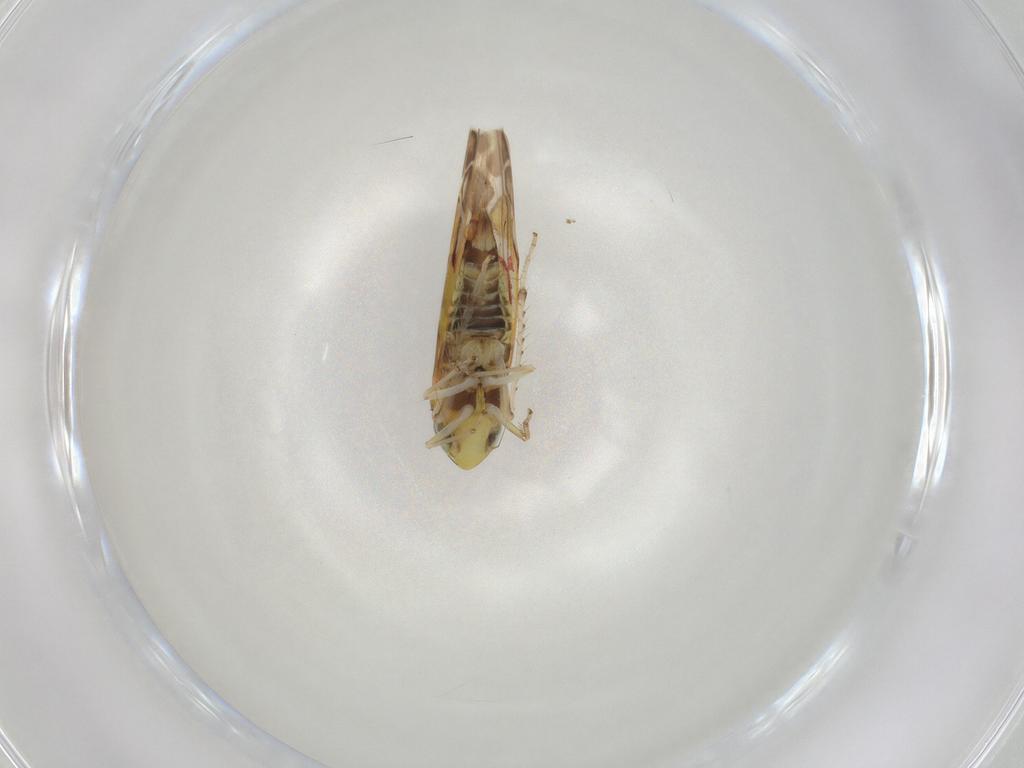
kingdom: Animalia
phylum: Arthropoda
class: Insecta
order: Hemiptera
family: Cicadellidae
